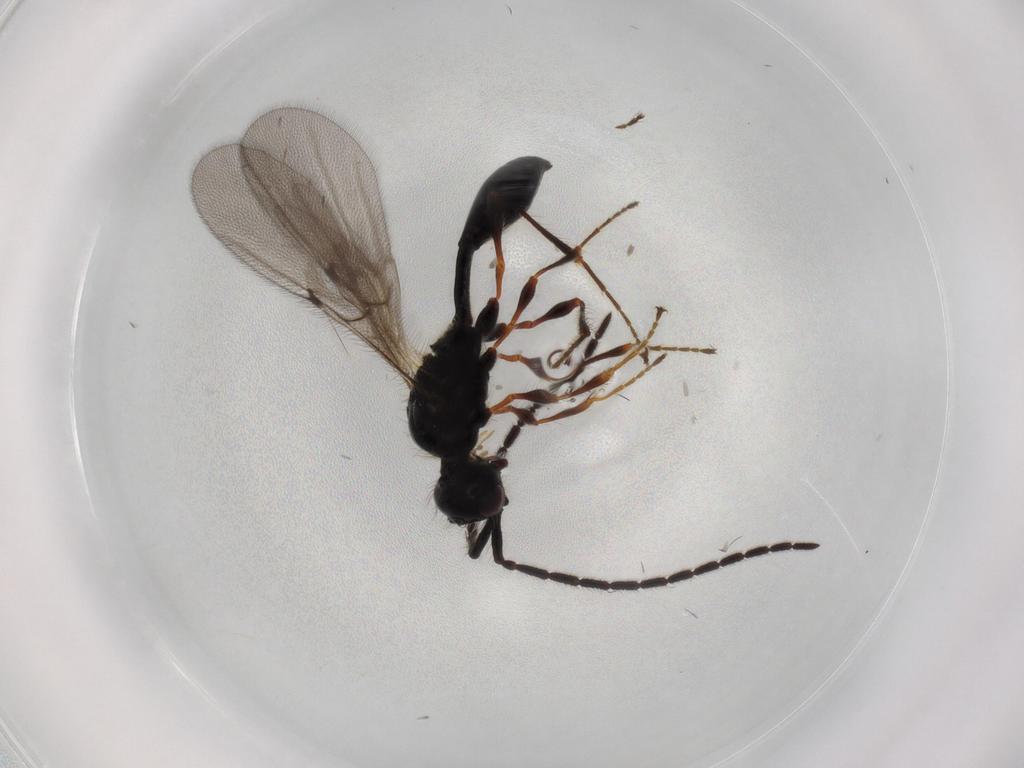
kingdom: Animalia
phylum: Arthropoda
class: Insecta
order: Hymenoptera
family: Diapriidae
